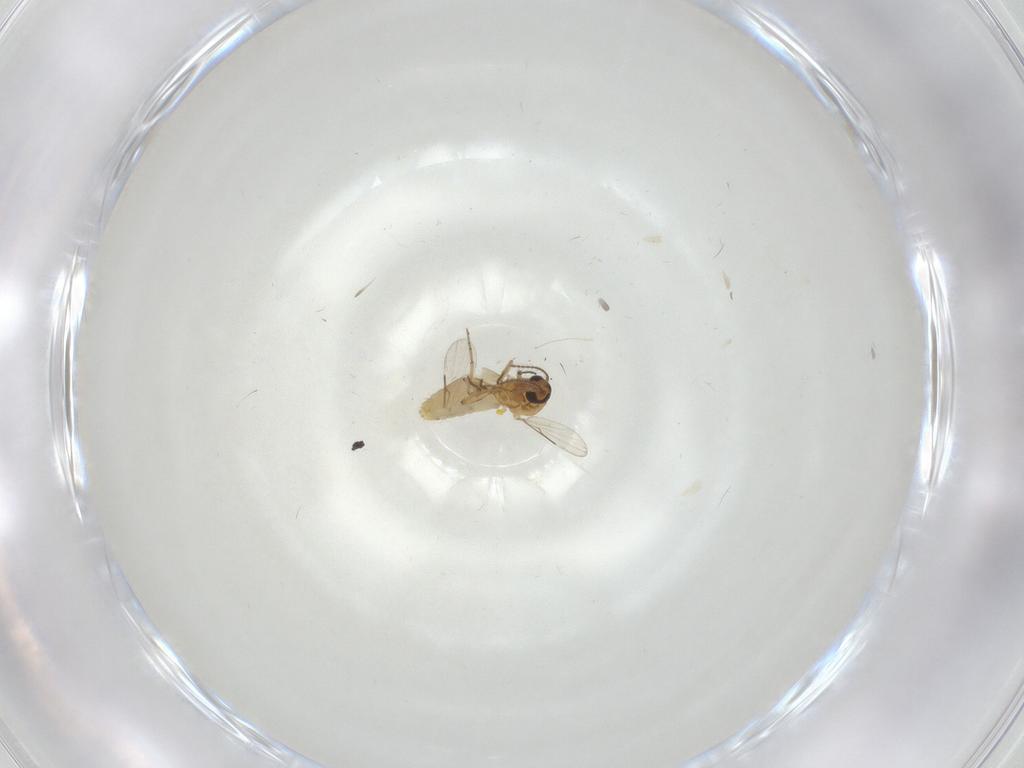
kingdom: Animalia
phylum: Arthropoda
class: Insecta
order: Diptera
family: Ceratopogonidae
